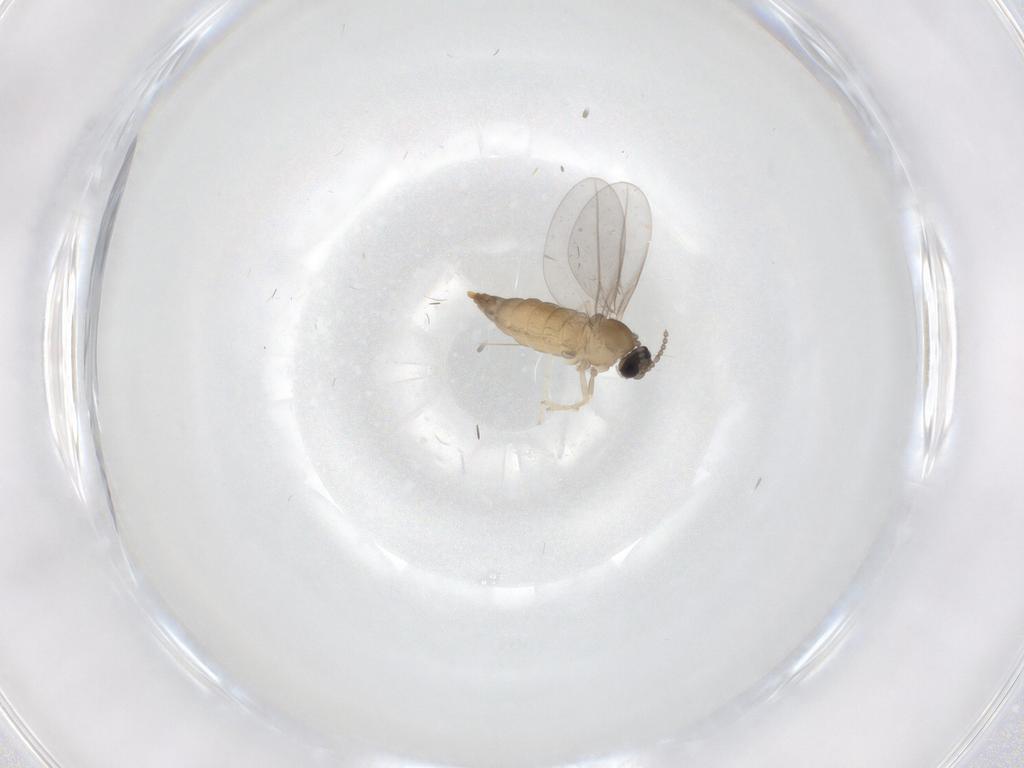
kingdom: Animalia
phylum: Arthropoda
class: Insecta
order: Diptera
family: Cecidomyiidae
